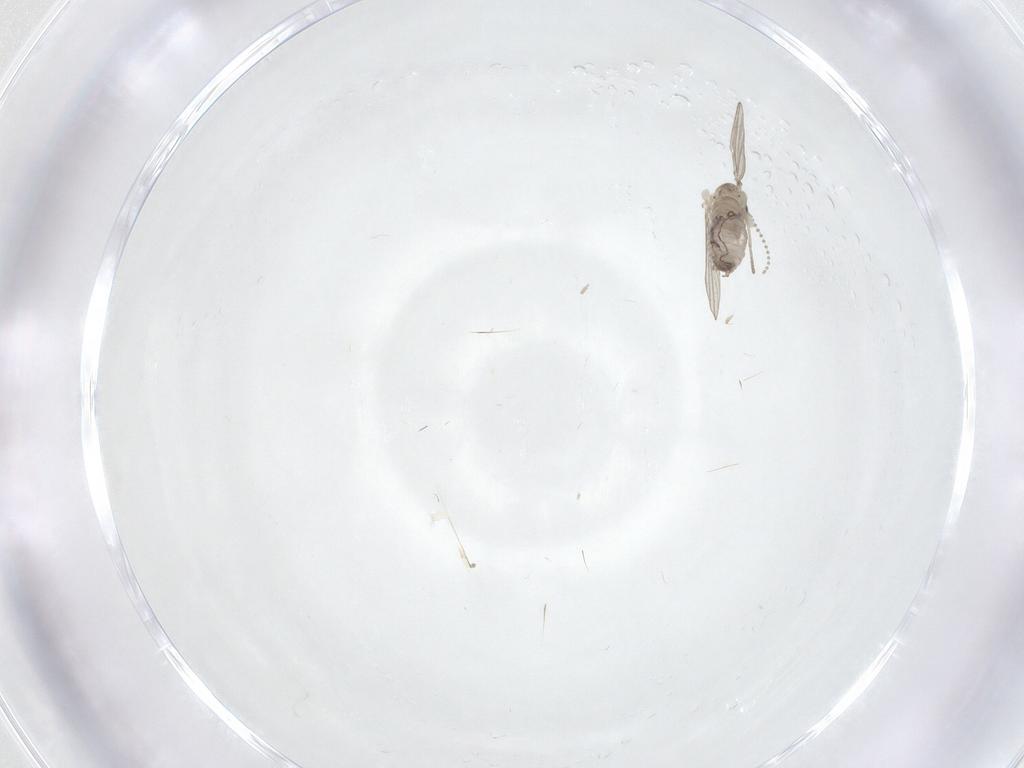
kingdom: Animalia
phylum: Arthropoda
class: Insecta
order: Diptera
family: Psychodidae
